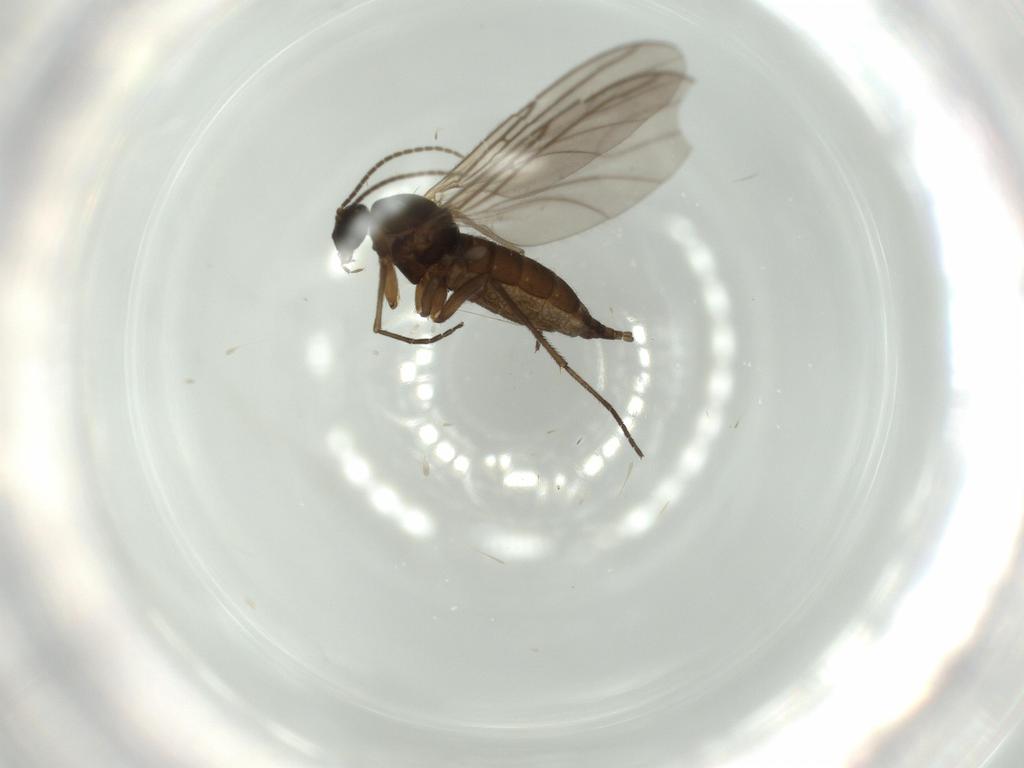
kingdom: Animalia
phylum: Arthropoda
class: Insecta
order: Diptera
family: Sciaridae
